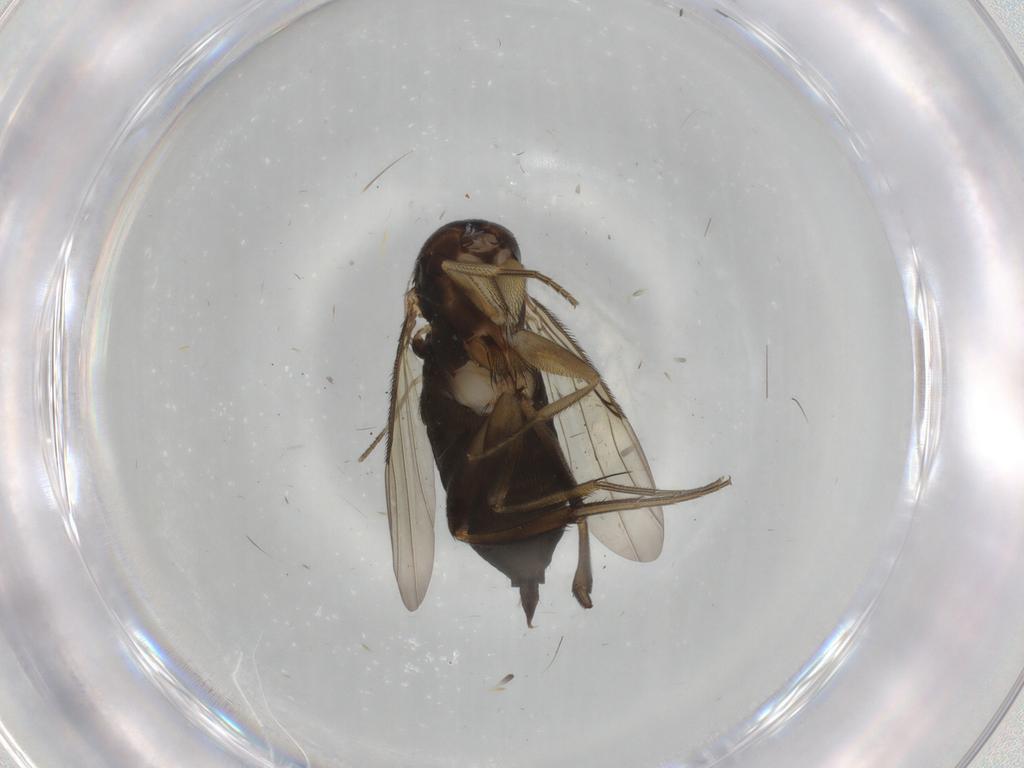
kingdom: Animalia
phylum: Arthropoda
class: Insecta
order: Diptera
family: Phoridae
